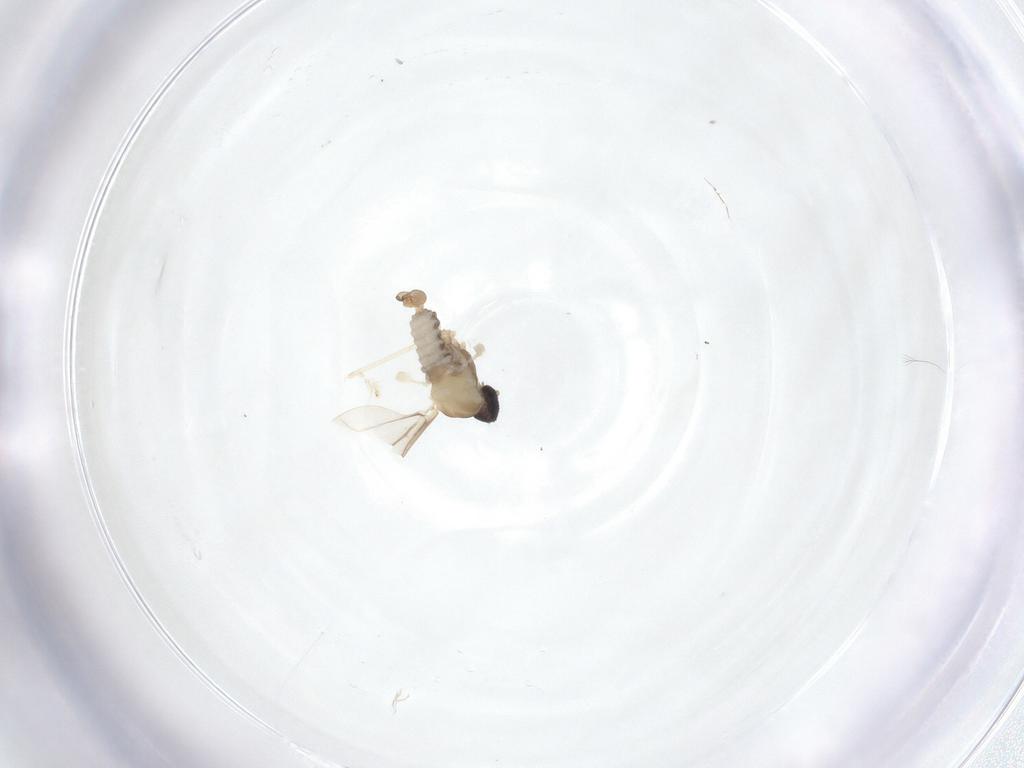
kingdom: Animalia
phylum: Arthropoda
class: Insecta
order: Diptera
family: Cecidomyiidae
